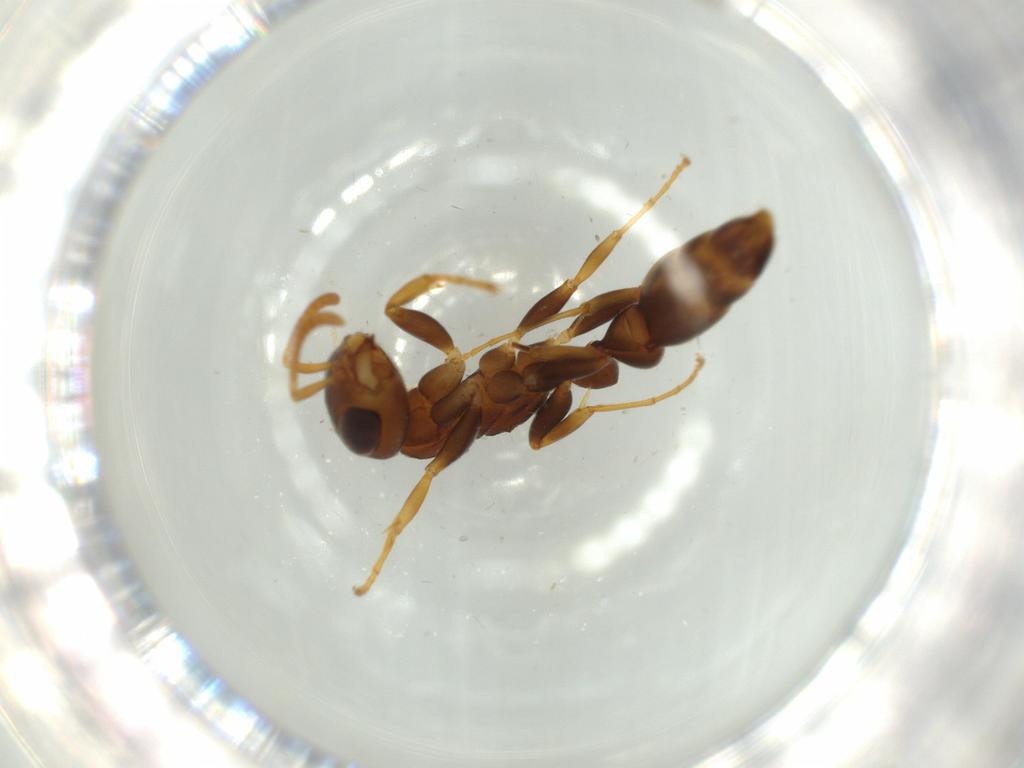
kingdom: Animalia
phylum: Arthropoda
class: Insecta
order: Hymenoptera
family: Formicidae
